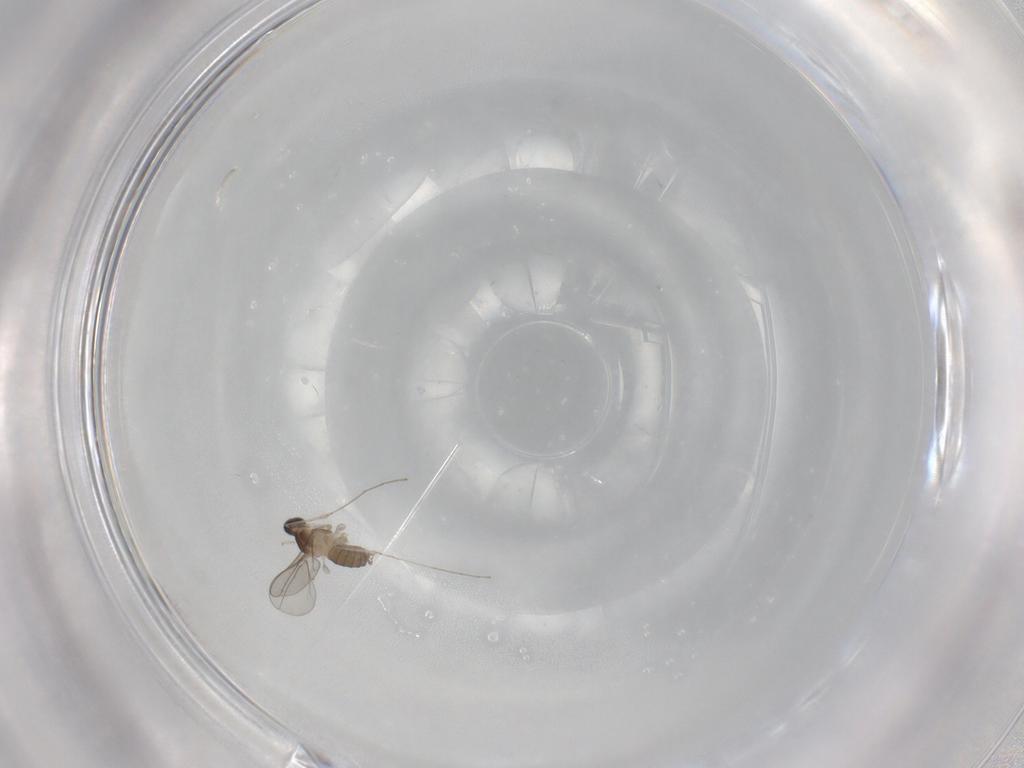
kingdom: Animalia
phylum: Arthropoda
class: Insecta
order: Diptera
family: Cecidomyiidae
